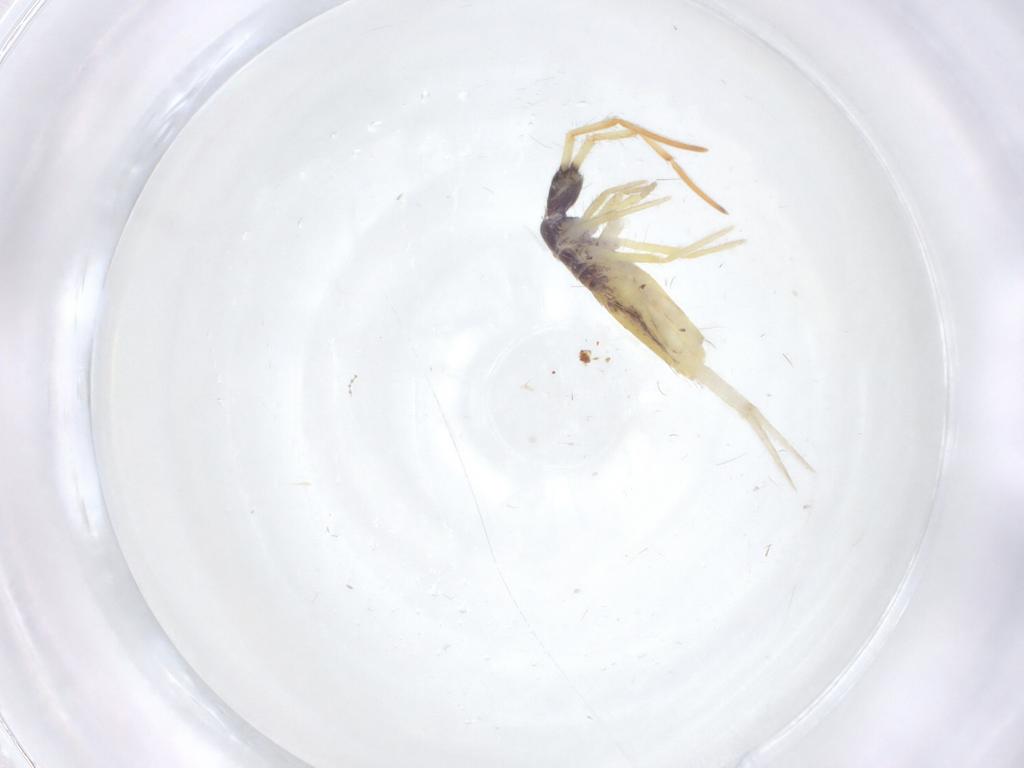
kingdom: Animalia
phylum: Arthropoda
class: Collembola
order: Entomobryomorpha
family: Entomobryidae
